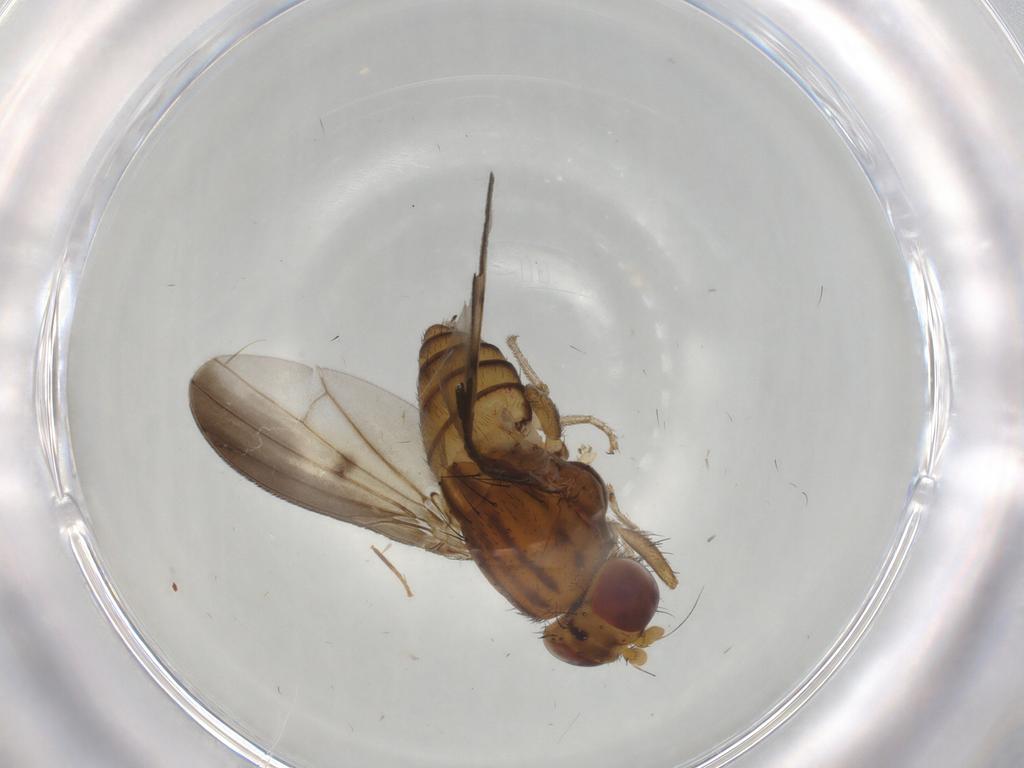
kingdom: Animalia
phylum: Arthropoda
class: Insecta
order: Diptera
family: Lauxaniidae
